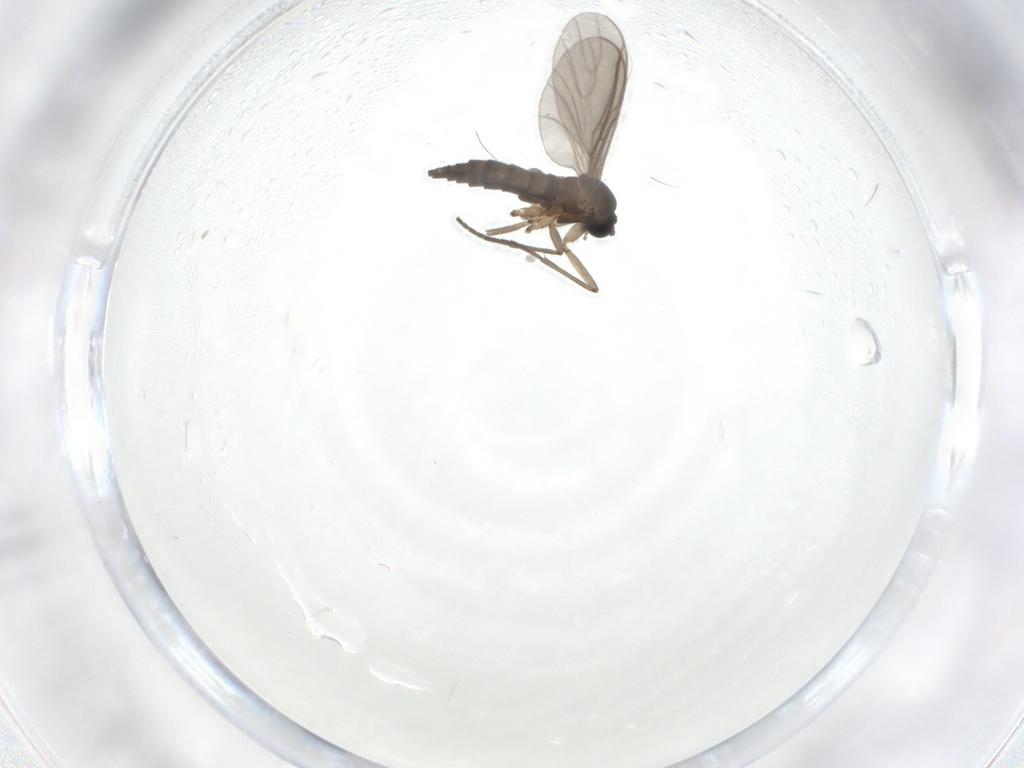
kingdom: Animalia
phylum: Arthropoda
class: Insecta
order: Diptera
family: Sciaridae
